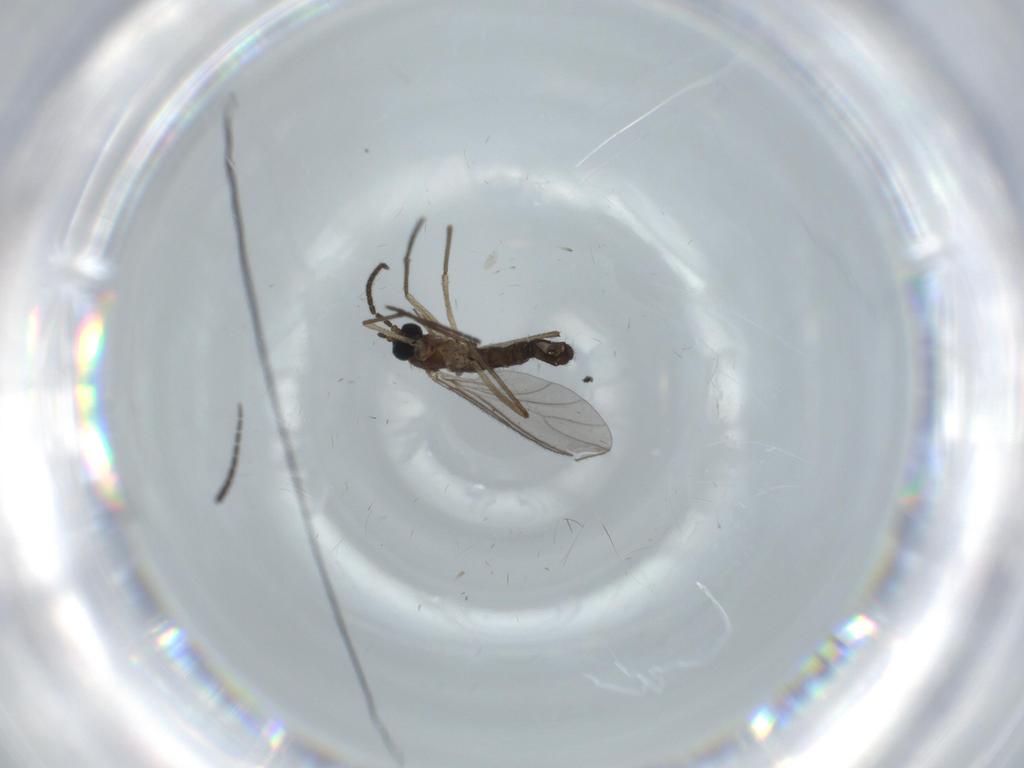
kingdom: Animalia
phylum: Arthropoda
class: Insecta
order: Diptera
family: Sciaridae
